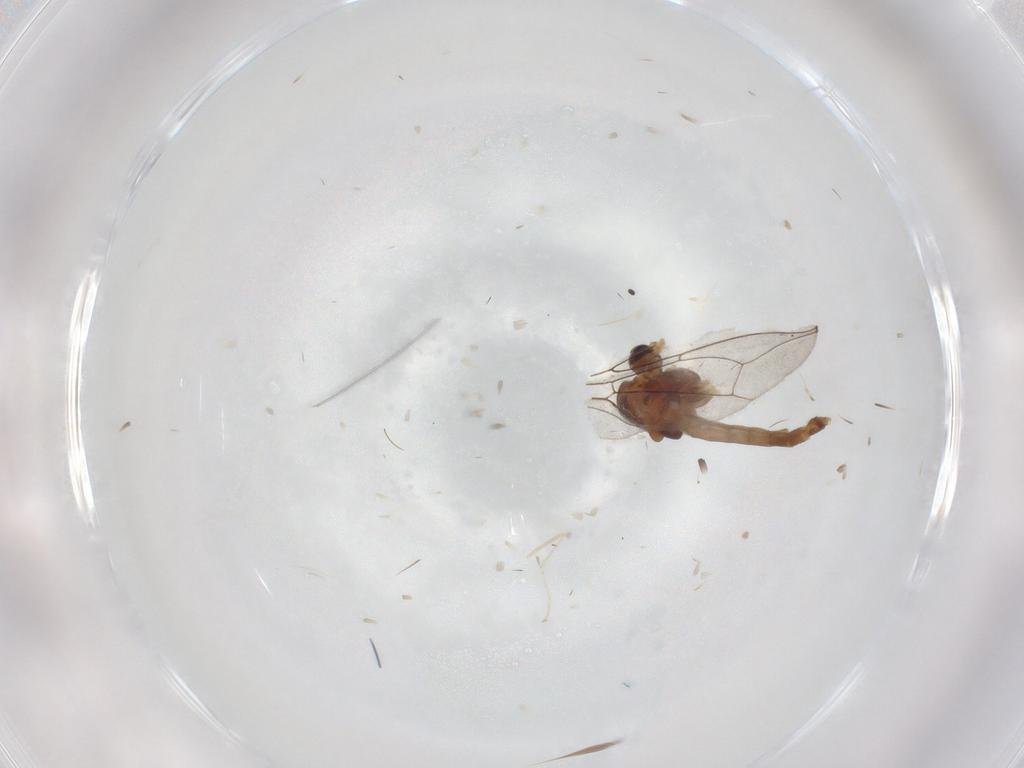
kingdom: Animalia
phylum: Arthropoda
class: Insecta
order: Diptera
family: Pipunculidae
